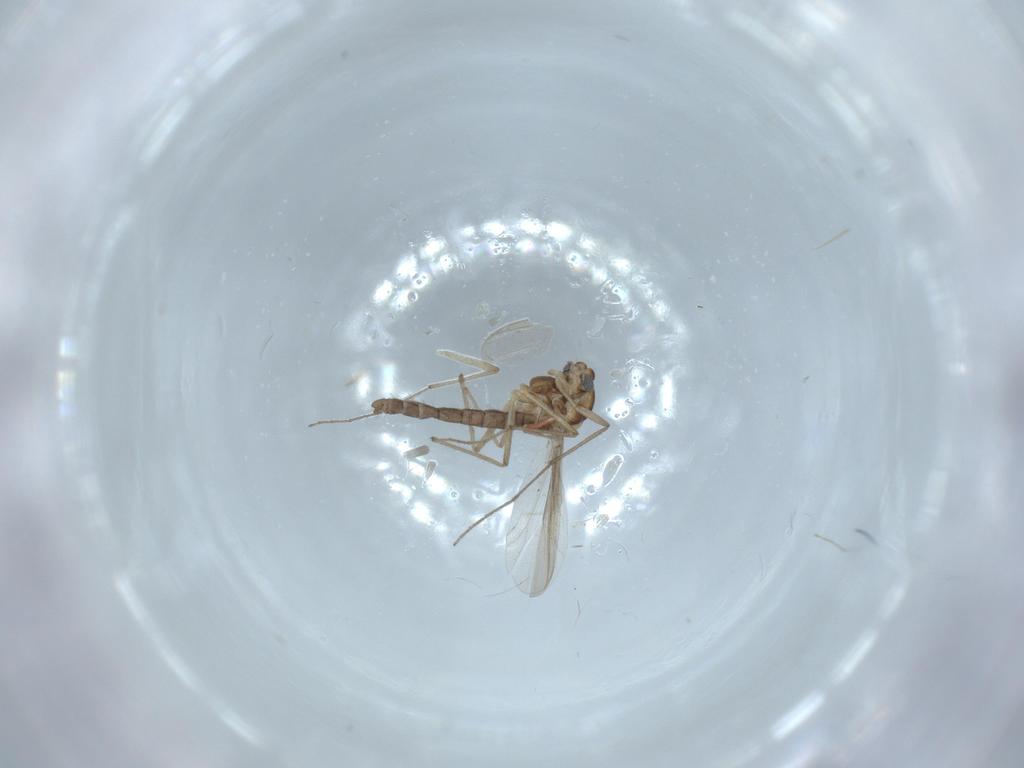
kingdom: Animalia
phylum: Arthropoda
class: Insecta
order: Diptera
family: Chironomidae
